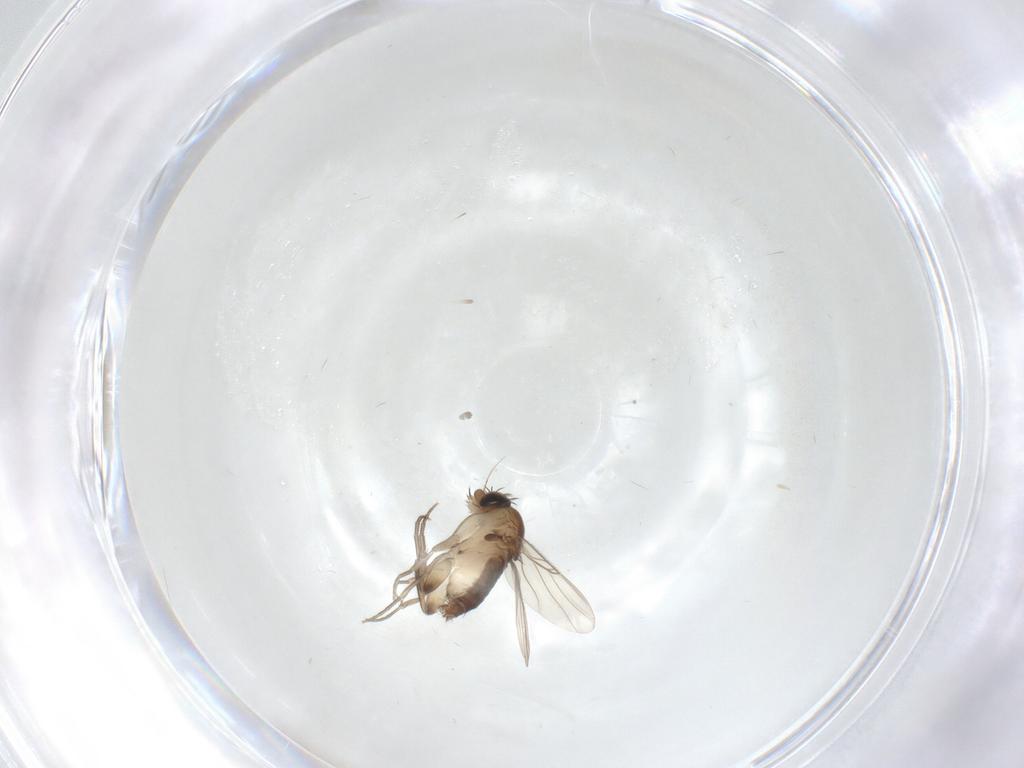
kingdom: Animalia
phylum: Arthropoda
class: Insecta
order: Diptera
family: Phoridae
